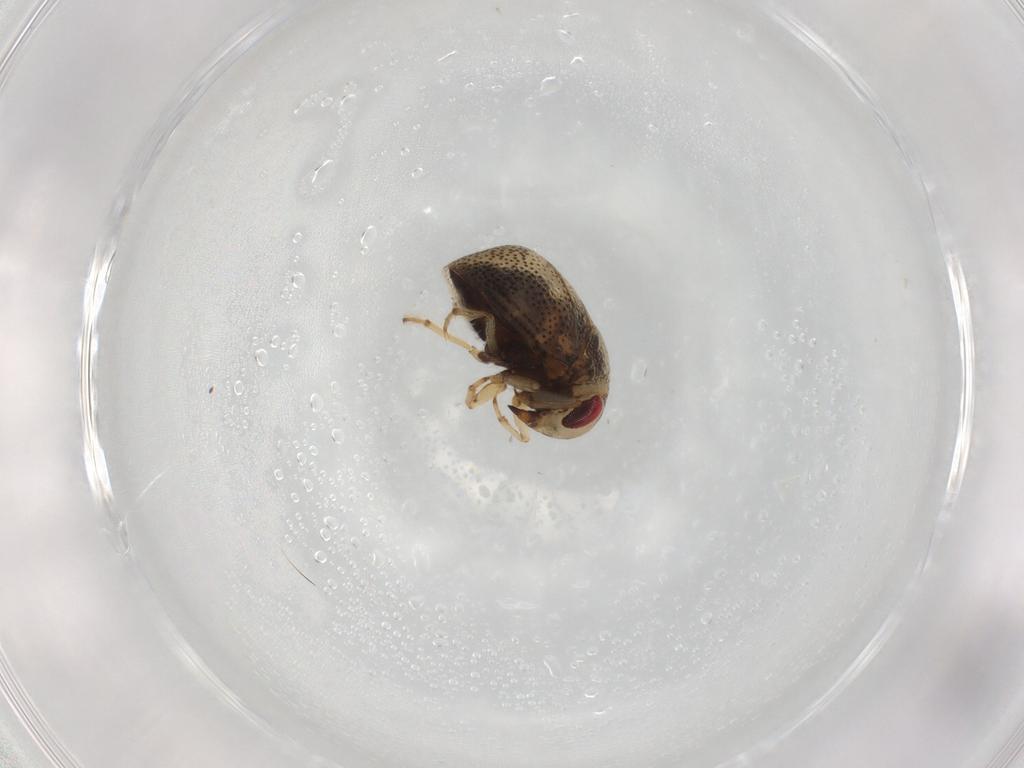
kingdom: Animalia
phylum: Arthropoda
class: Insecta
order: Hemiptera
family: Pleidae
